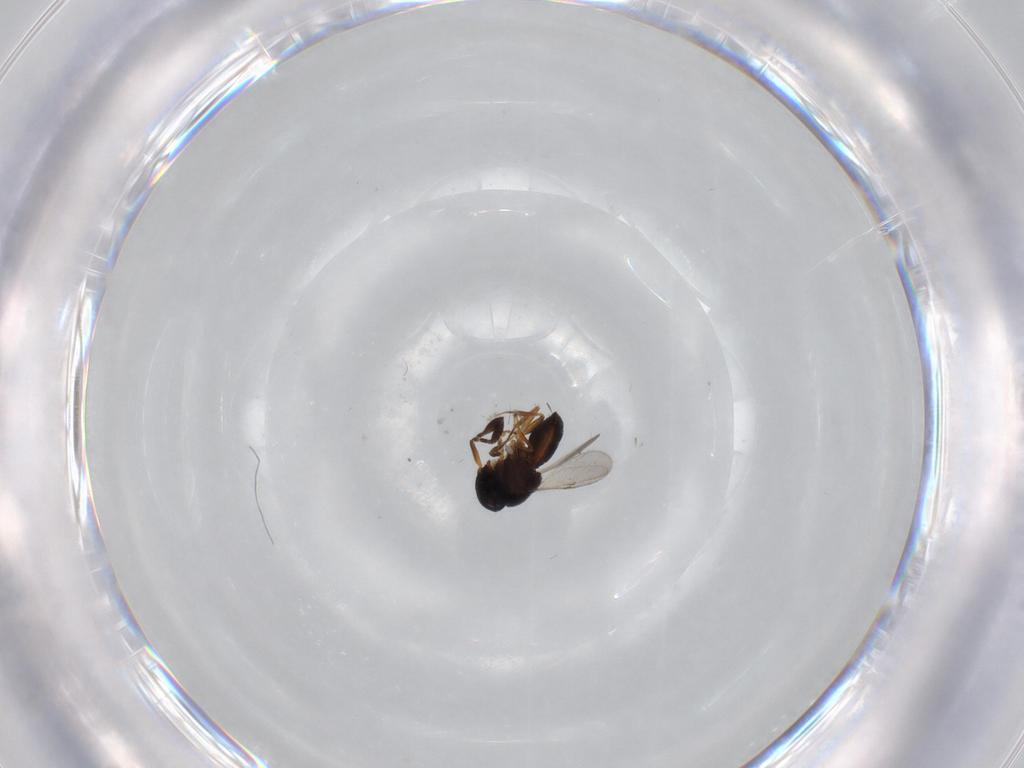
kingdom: Animalia
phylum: Arthropoda
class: Insecta
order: Hymenoptera
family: Scelionidae
